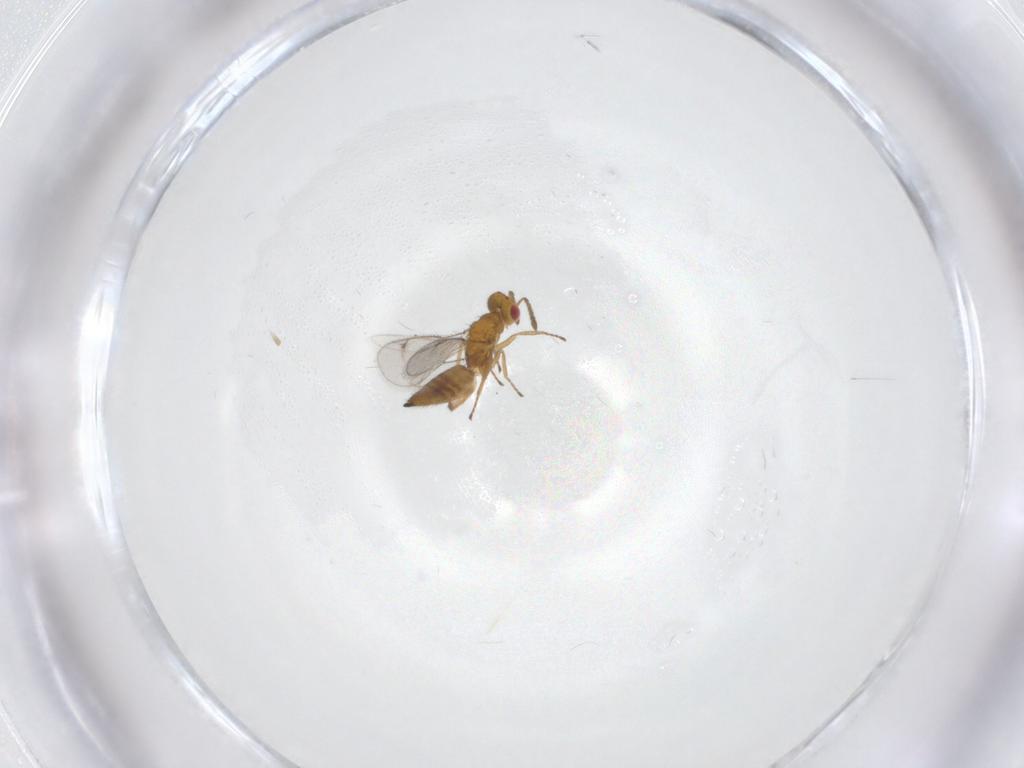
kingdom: Animalia
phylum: Arthropoda
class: Insecta
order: Hymenoptera
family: Eulophidae
